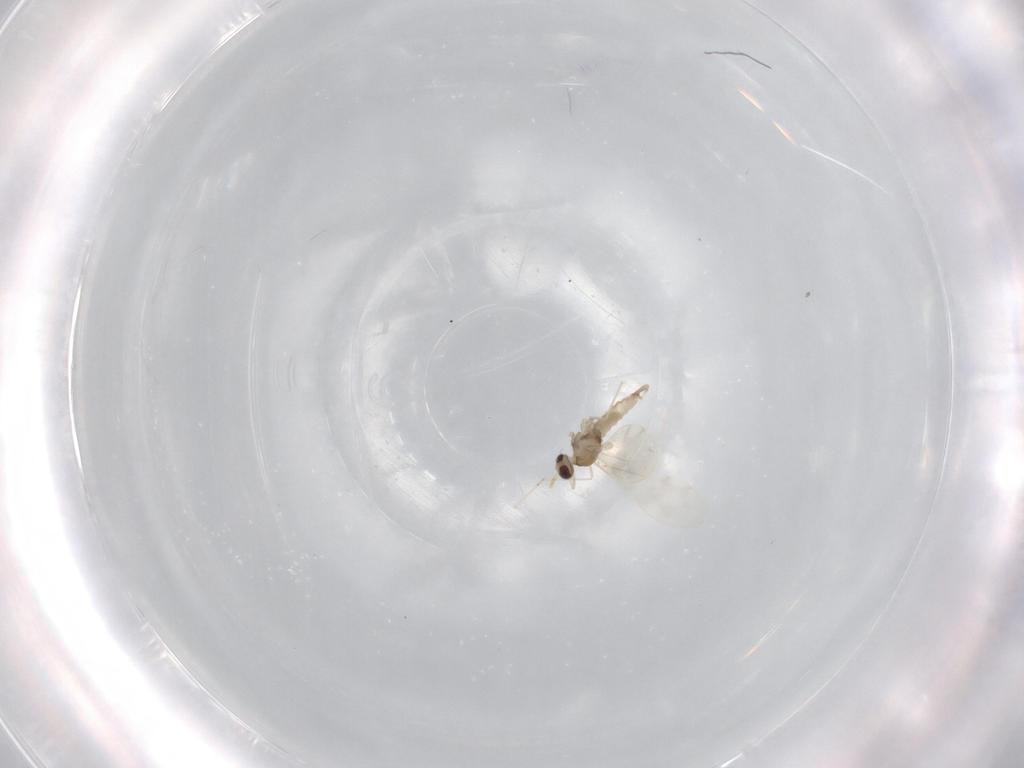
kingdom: Animalia
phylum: Arthropoda
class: Insecta
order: Diptera
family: Cecidomyiidae
